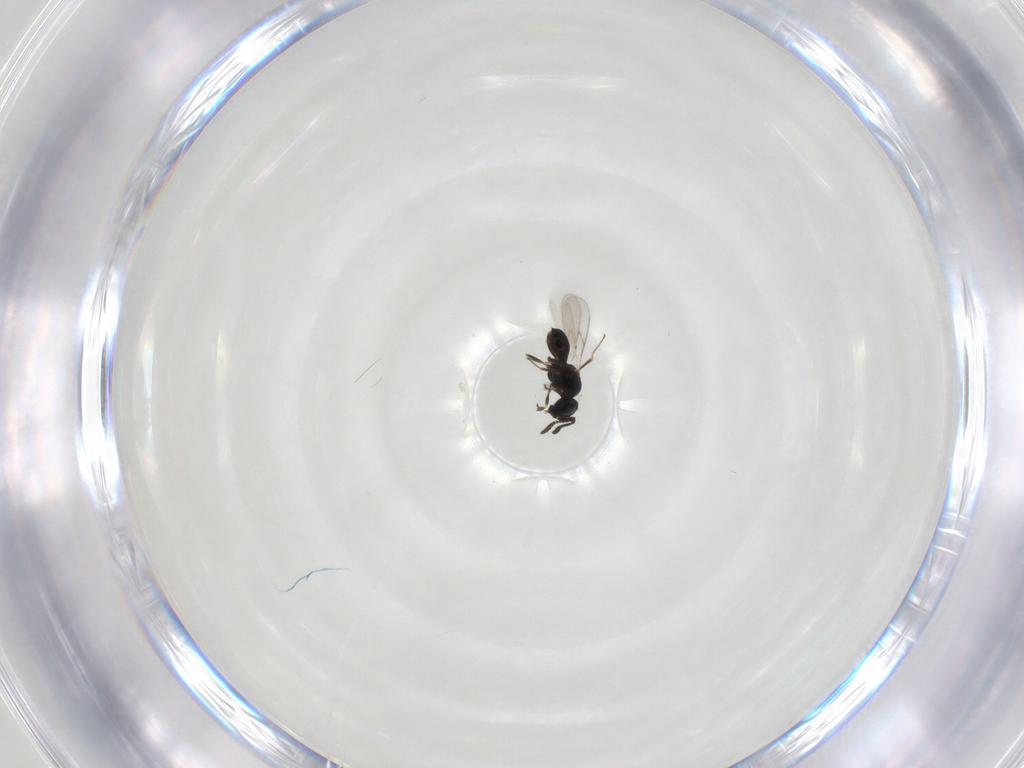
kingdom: Animalia
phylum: Arthropoda
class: Insecta
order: Hymenoptera
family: Scelionidae
